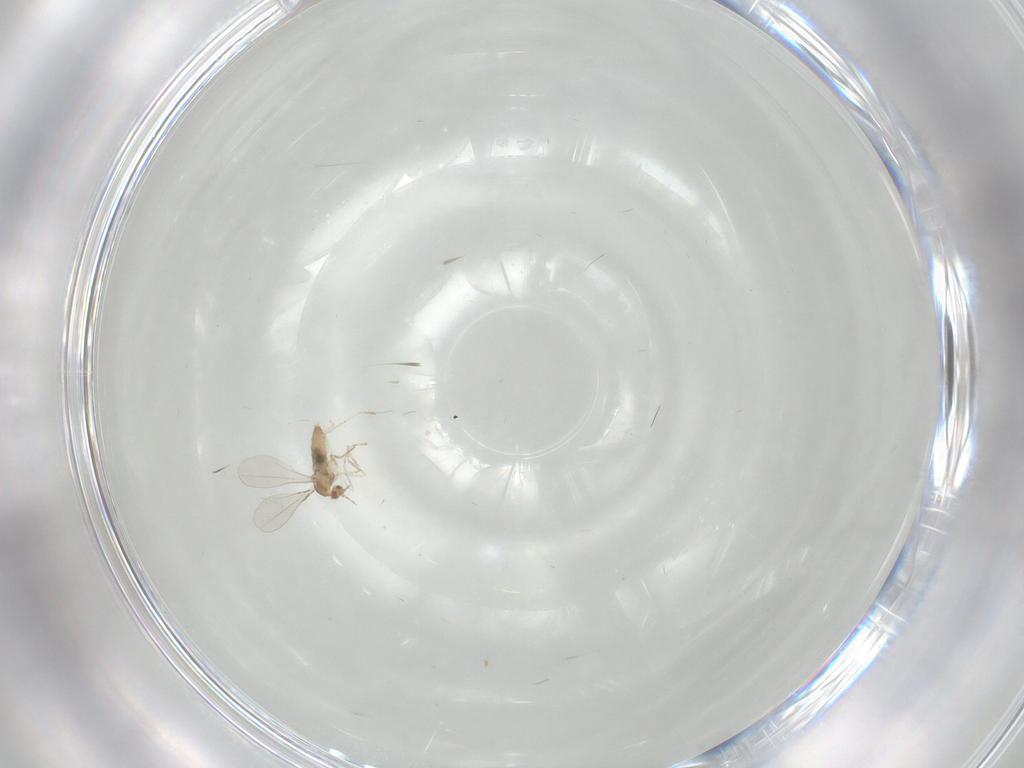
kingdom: Animalia
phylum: Arthropoda
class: Insecta
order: Diptera
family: Cecidomyiidae
